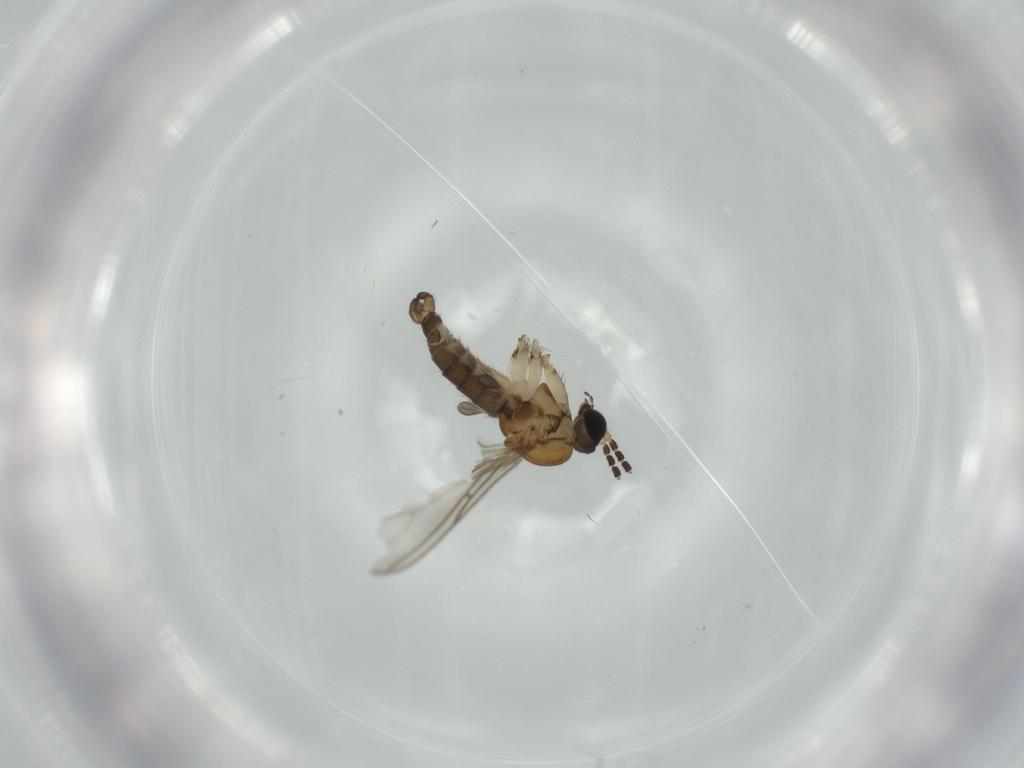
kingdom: Animalia
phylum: Arthropoda
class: Insecta
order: Diptera
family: Sciaridae
